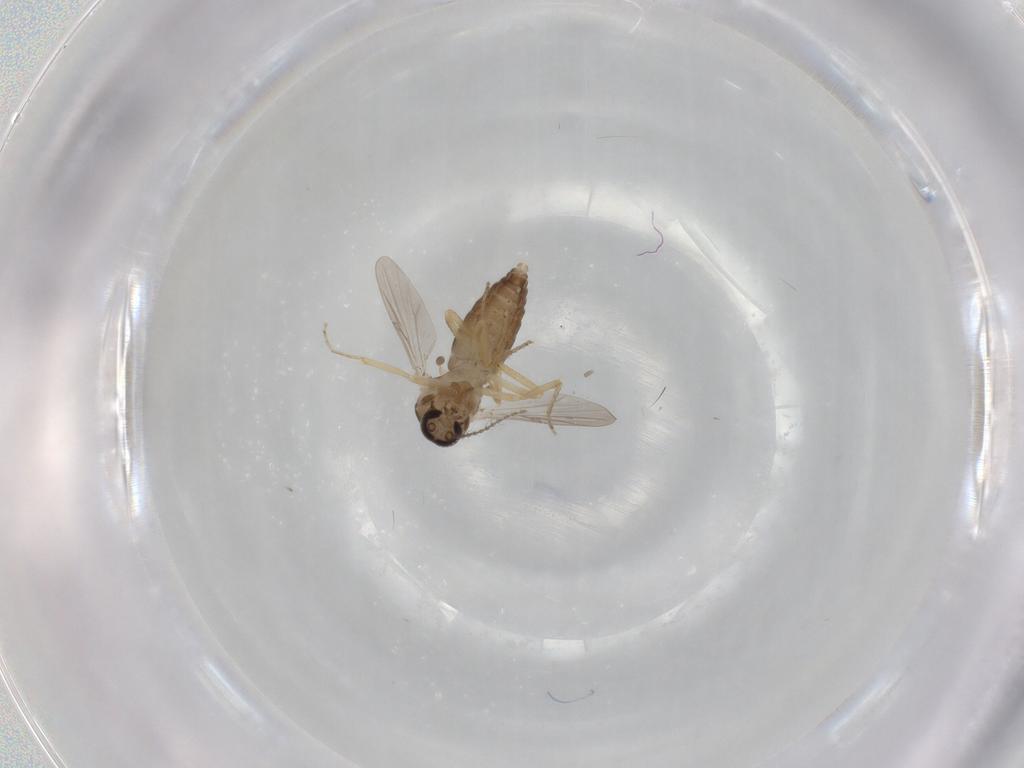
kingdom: Animalia
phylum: Arthropoda
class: Insecta
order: Diptera
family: Ceratopogonidae
